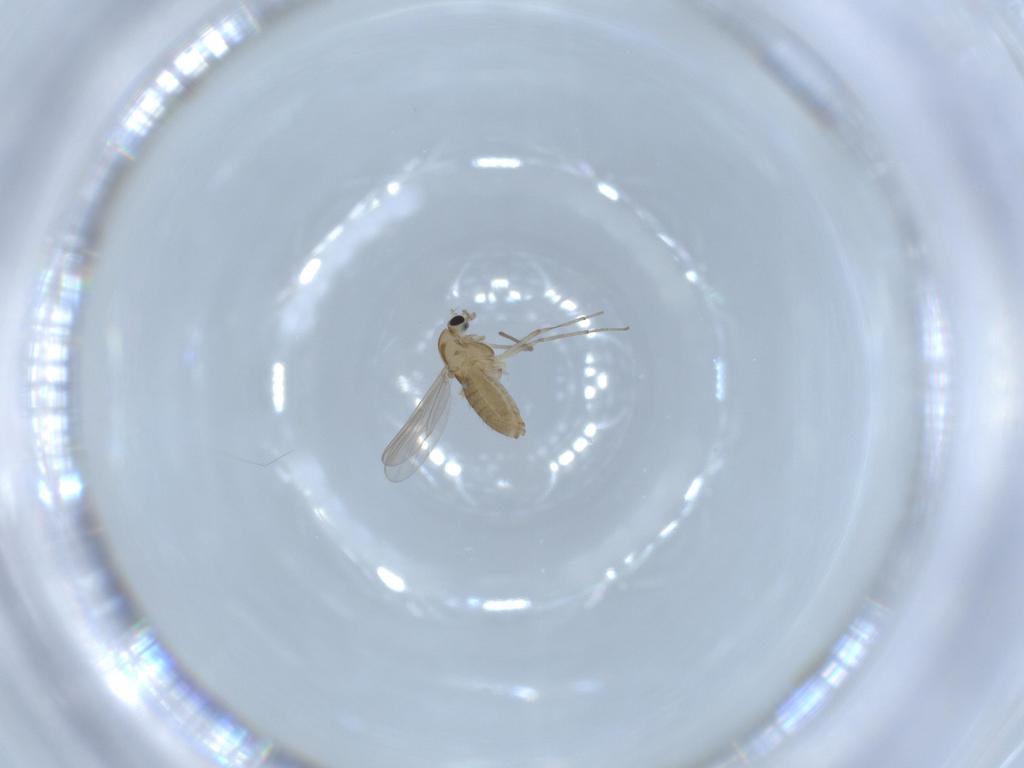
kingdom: Animalia
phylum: Arthropoda
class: Insecta
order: Diptera
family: Chironomidae
